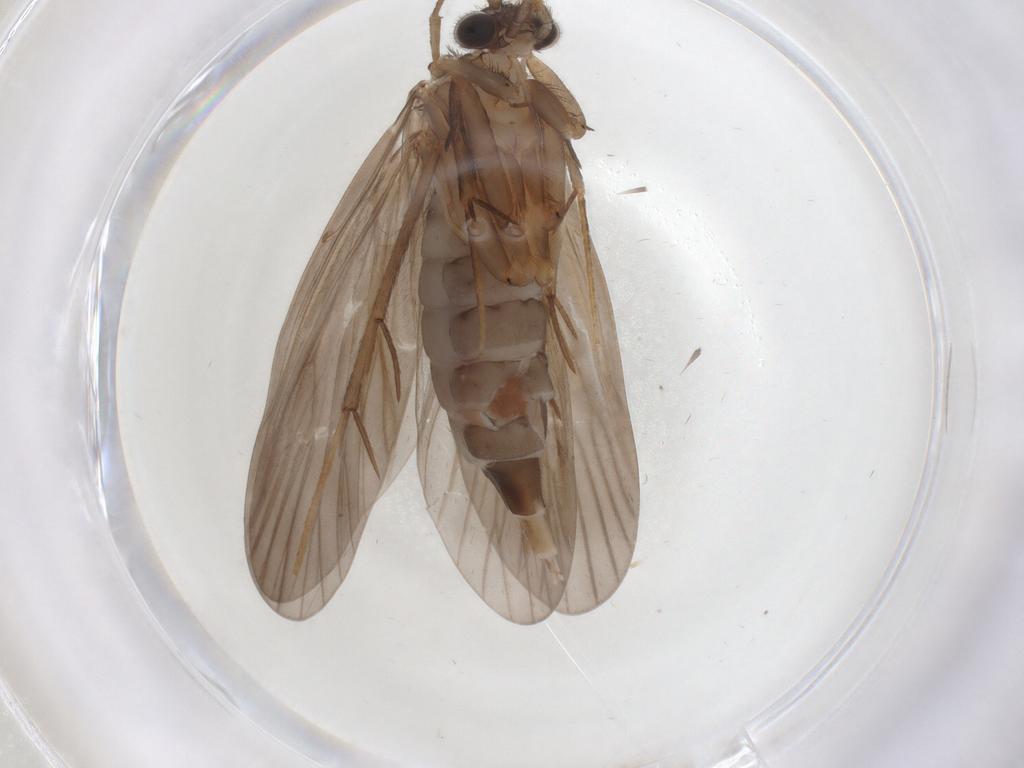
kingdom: Animalia
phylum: Arthropoda
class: Insecta
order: Trichoptera
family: Philopotamidae
